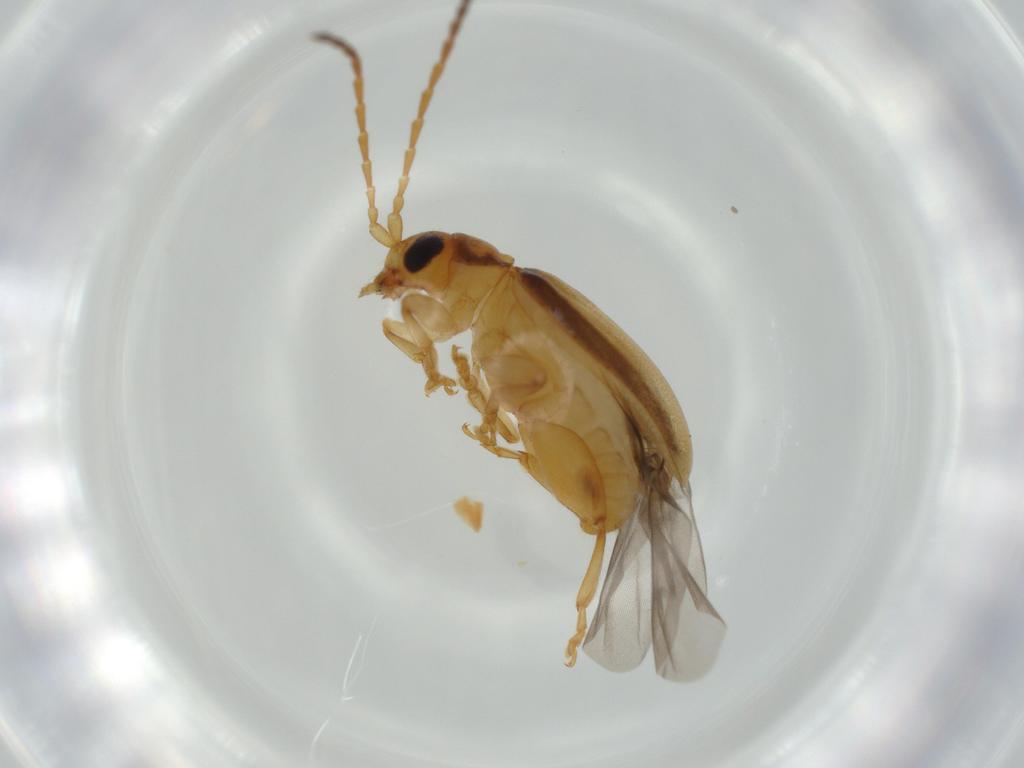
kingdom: Animalia
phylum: Arthropoda
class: Insecta
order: Coleoptera
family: Chrysomelidae
